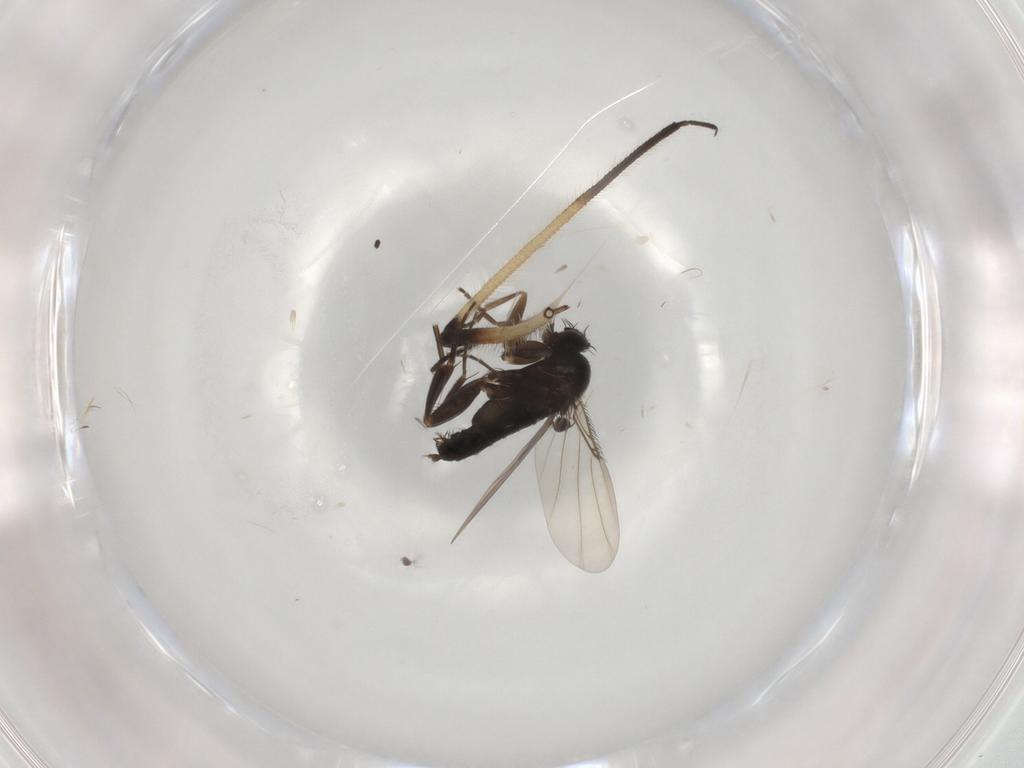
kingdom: Animalia
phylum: Arthropoda
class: Insecta
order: Diptera
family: Phoridae
